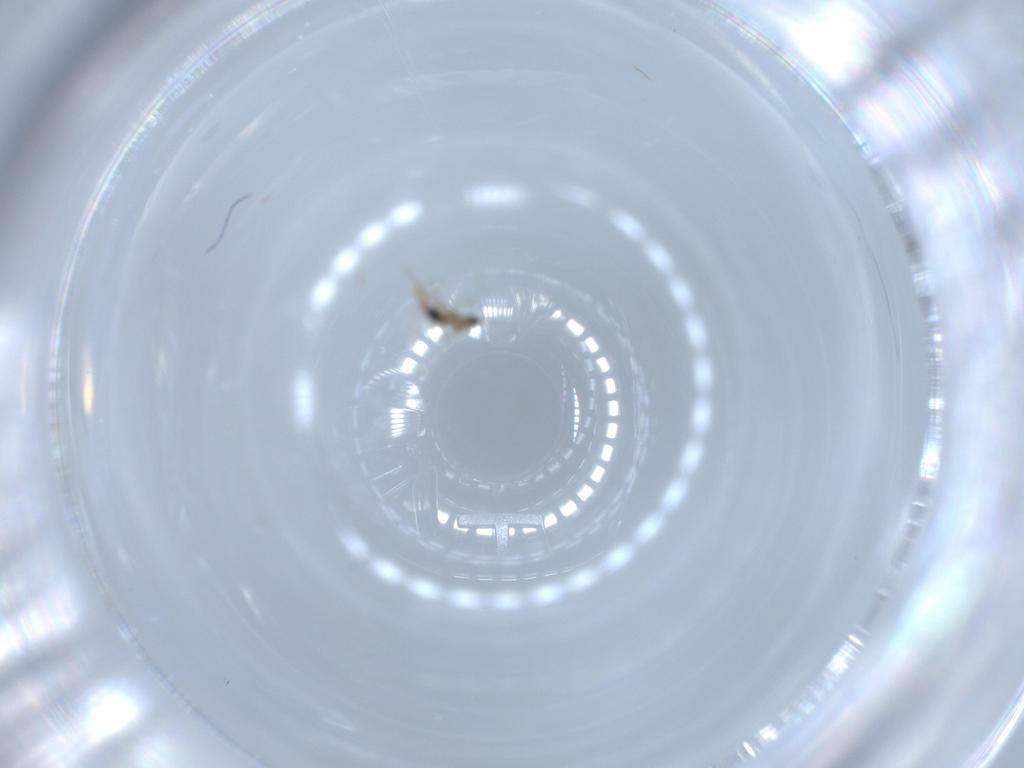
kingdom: Animalia
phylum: Arthropoda
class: Insecta
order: Diptera
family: Cecidomyiidae
